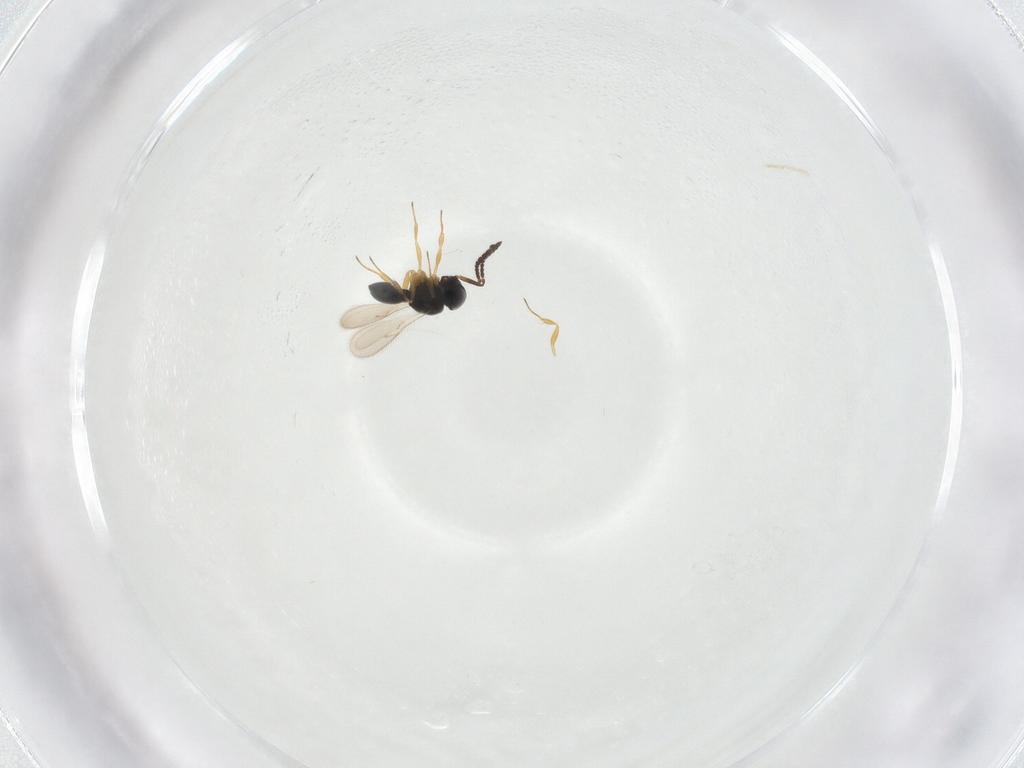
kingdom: Animalia
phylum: Arthropoda
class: Insecta
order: Hymenoptera
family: Scelionidae
